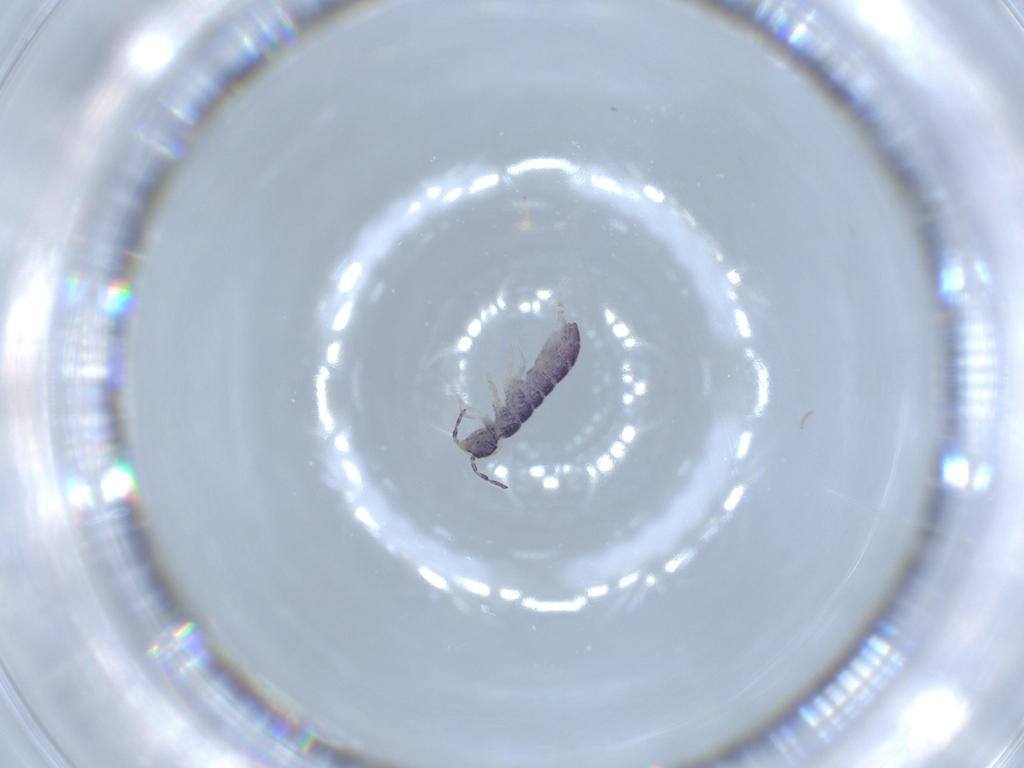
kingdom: Animalia
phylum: Arthropoda
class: Collembola
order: Entomobryomorpha
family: Isotomidae
